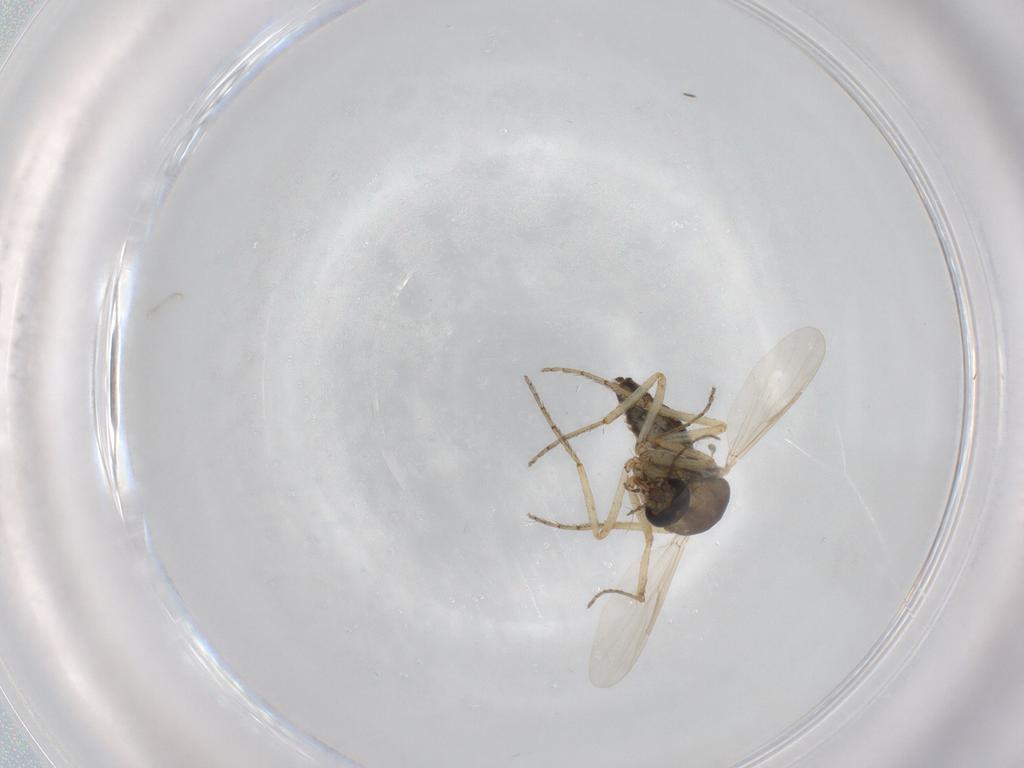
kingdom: Animalia
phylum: Arthropoda
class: Insecta
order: Diptera
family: Ceratopogonidae
